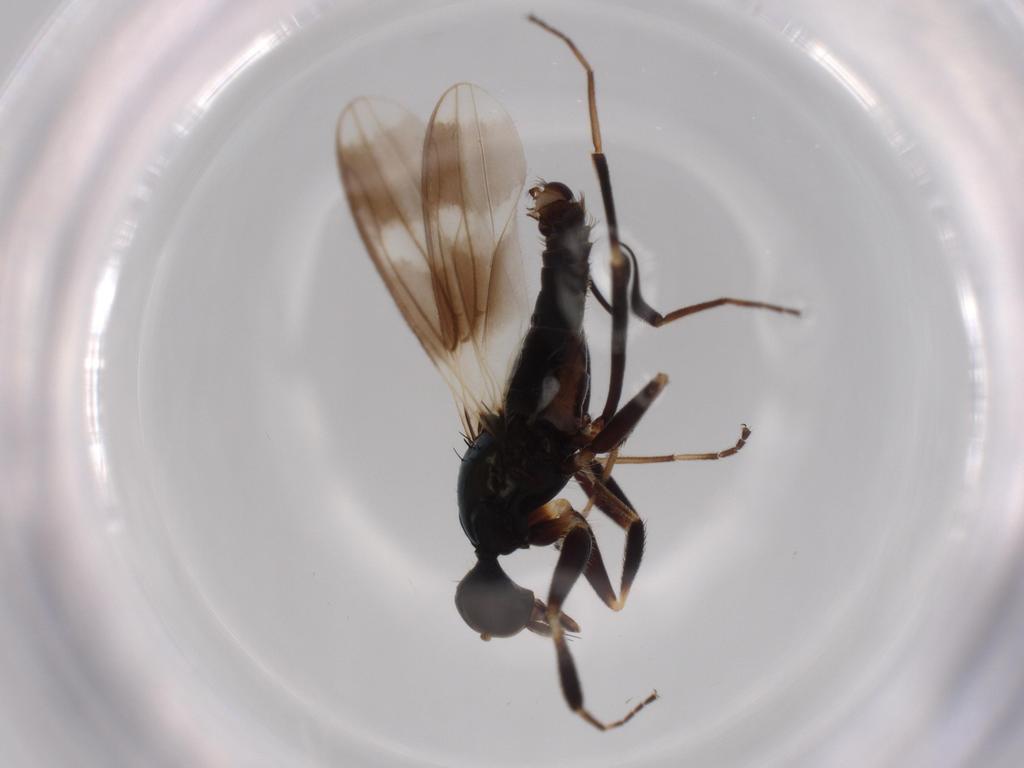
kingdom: Animalia
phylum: Arthropoda
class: Insecta
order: Diptera
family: Hybotidae
